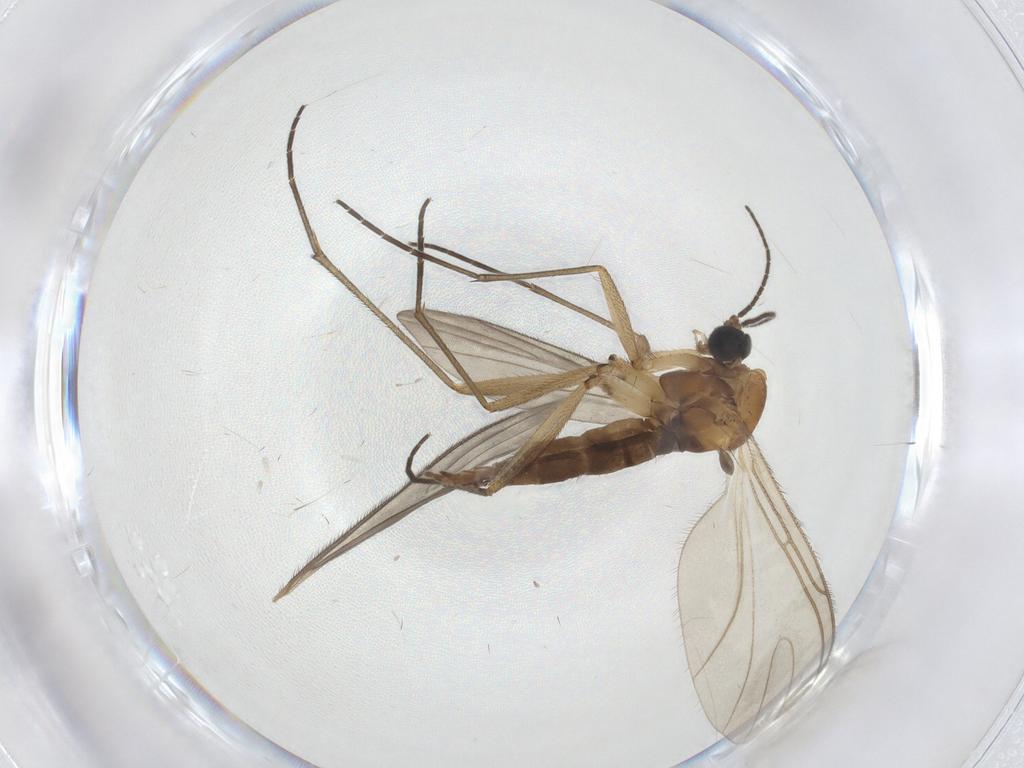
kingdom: Animalia
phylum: Arthropoda
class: Insecta
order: Diptera
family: Sciaridae
